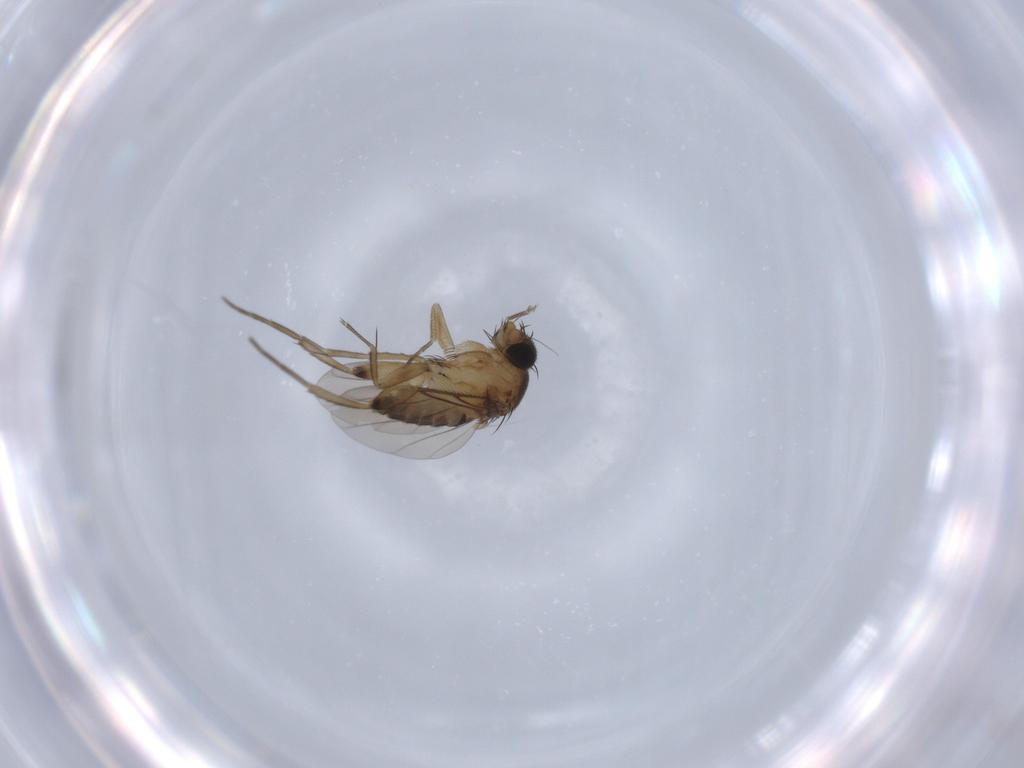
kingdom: Animalia
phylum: Arthropoda
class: Insecta
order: Diptera
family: Phoridae
